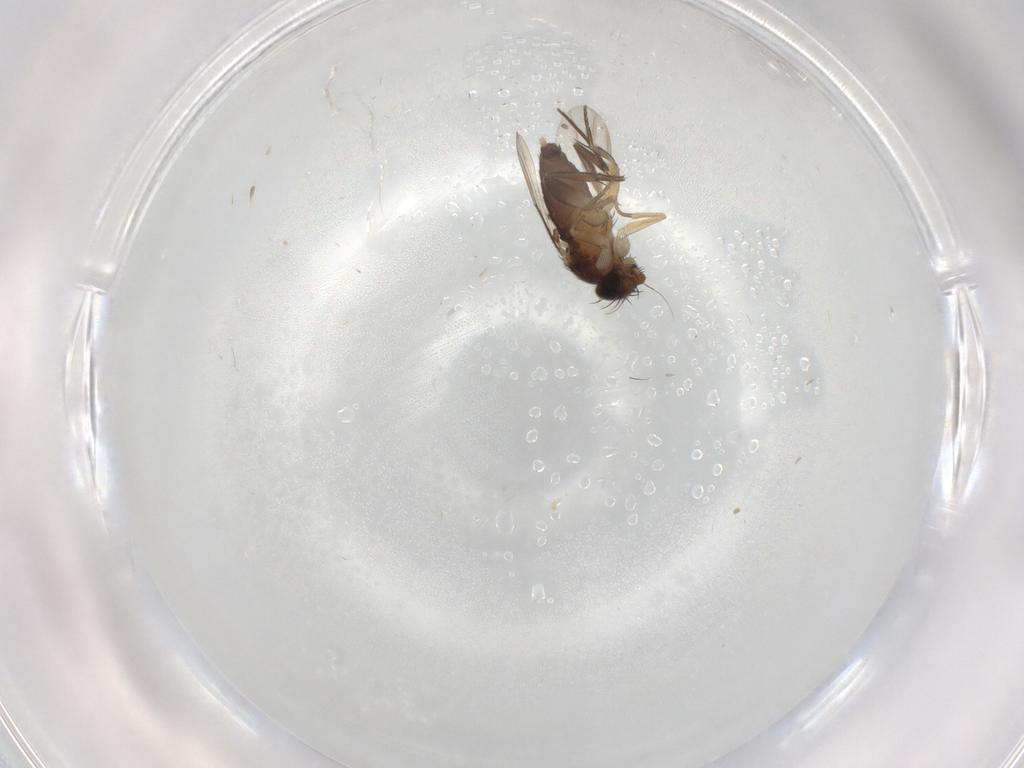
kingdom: Animalia
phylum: Arthropoda
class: Insecta
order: Diptera
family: Phoridae
